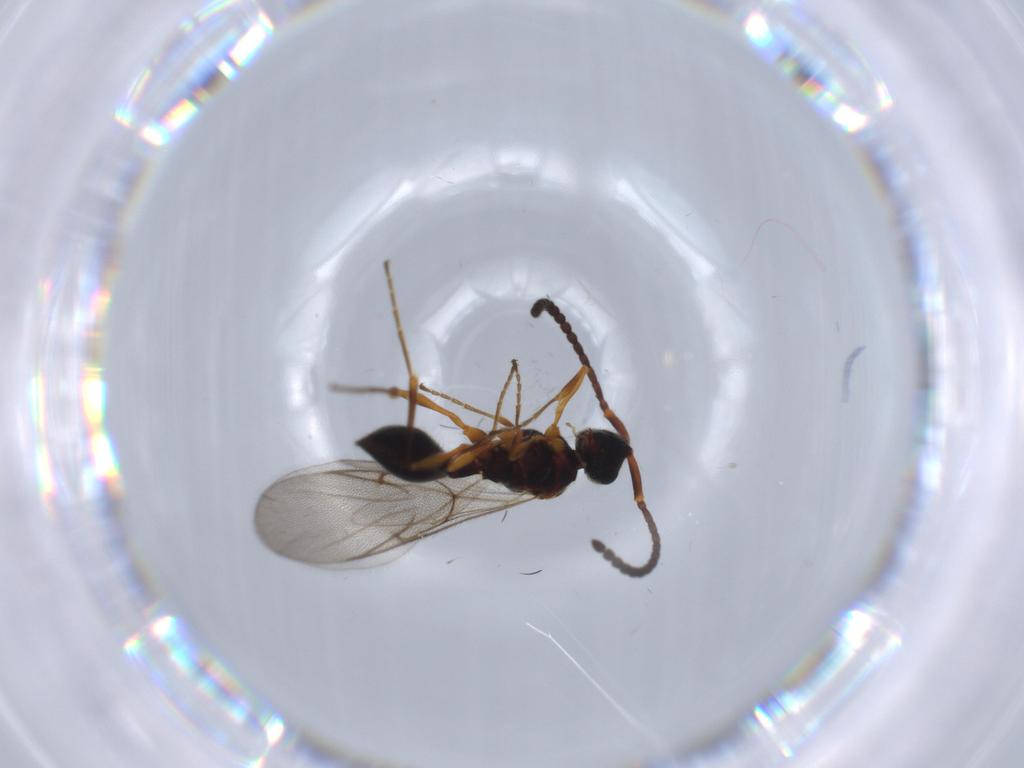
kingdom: Animalia
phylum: Arthropoda
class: Insecta
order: Hymenoptera
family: Diapriidae
